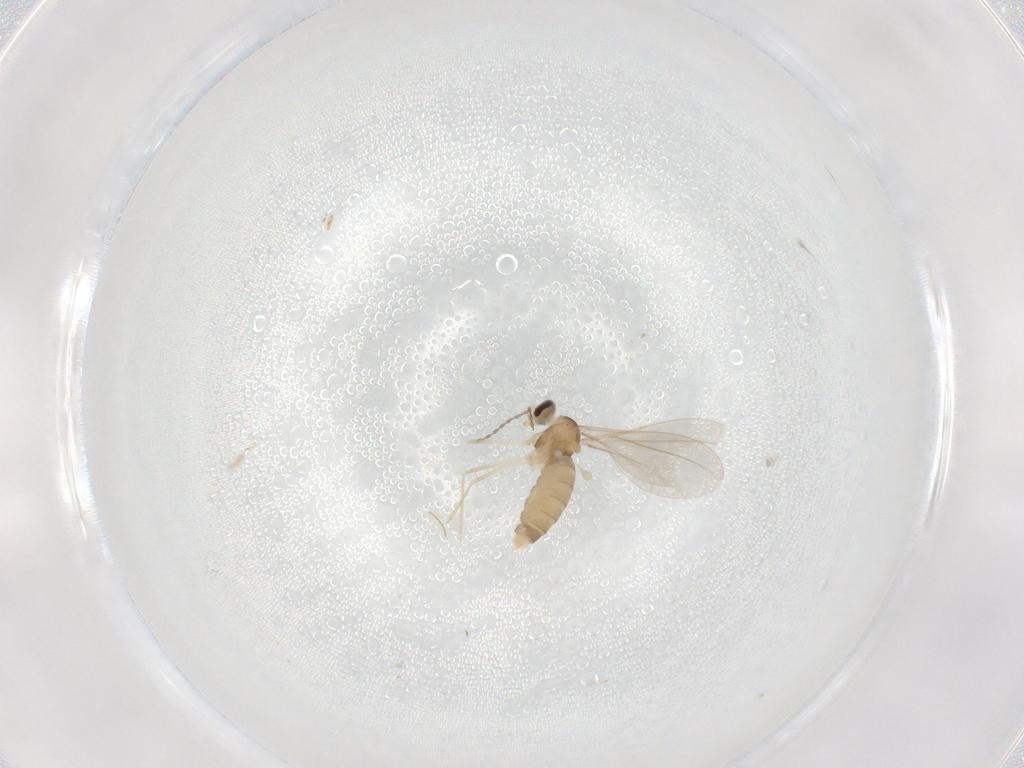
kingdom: Animalia
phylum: Arthropoda
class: Insecta
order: Diptera
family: Cecidomyiidae
